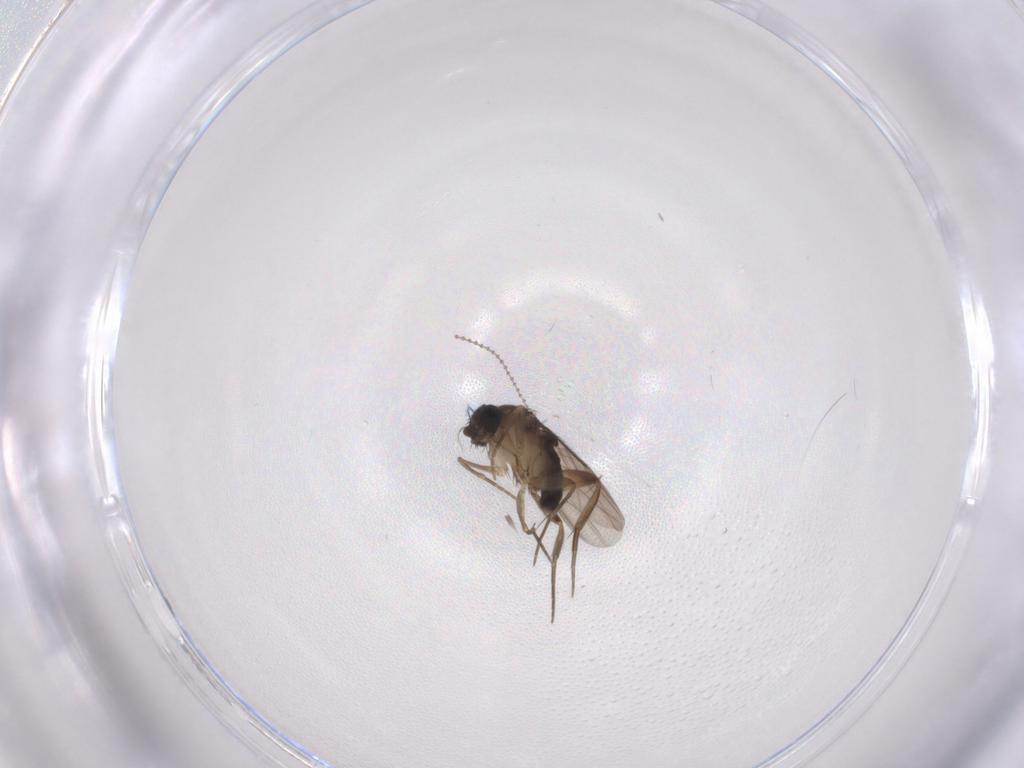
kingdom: Animalia
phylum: Arthropoda
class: Insecta
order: Diptera
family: Phoridae
